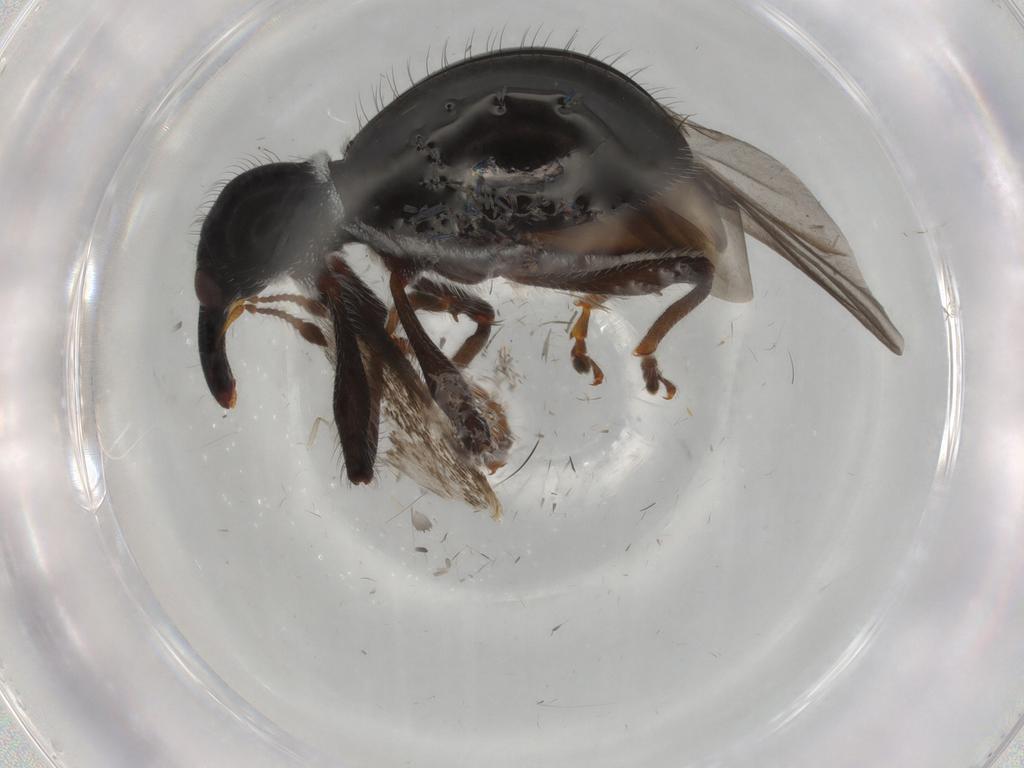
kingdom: Animalia
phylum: Arthropoda
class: Insecta
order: Coleoptera
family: Curculionidae
